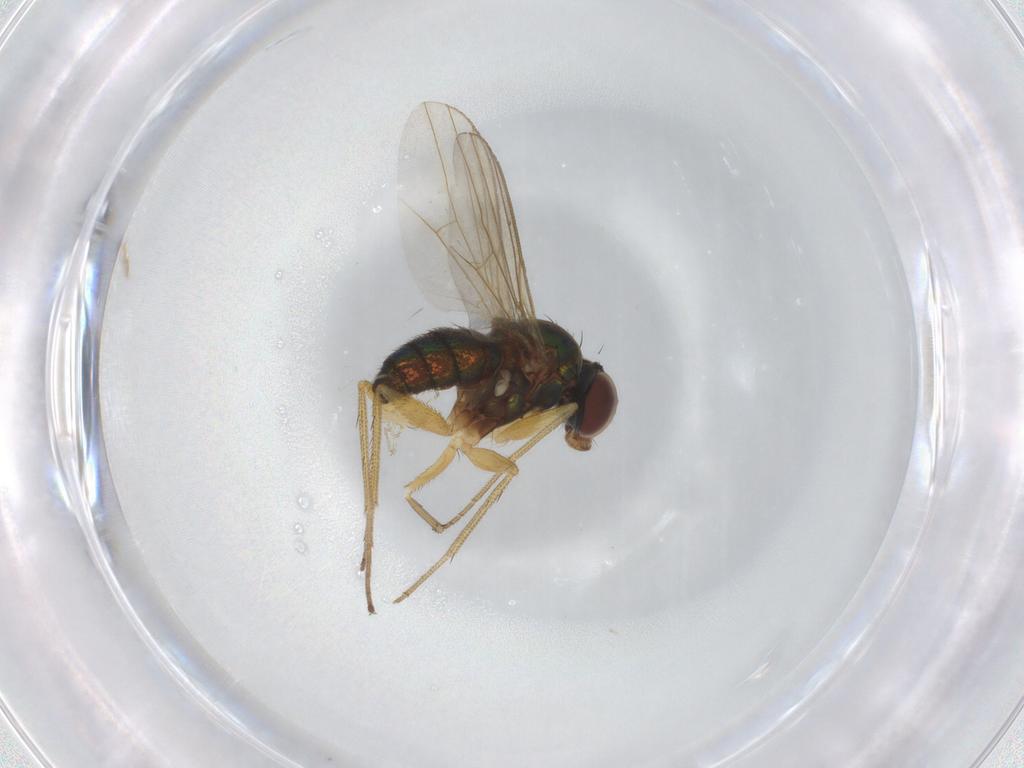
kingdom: Animalia
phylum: Arthropoda
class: Insecta
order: Diptera
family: Dolichopodidae
